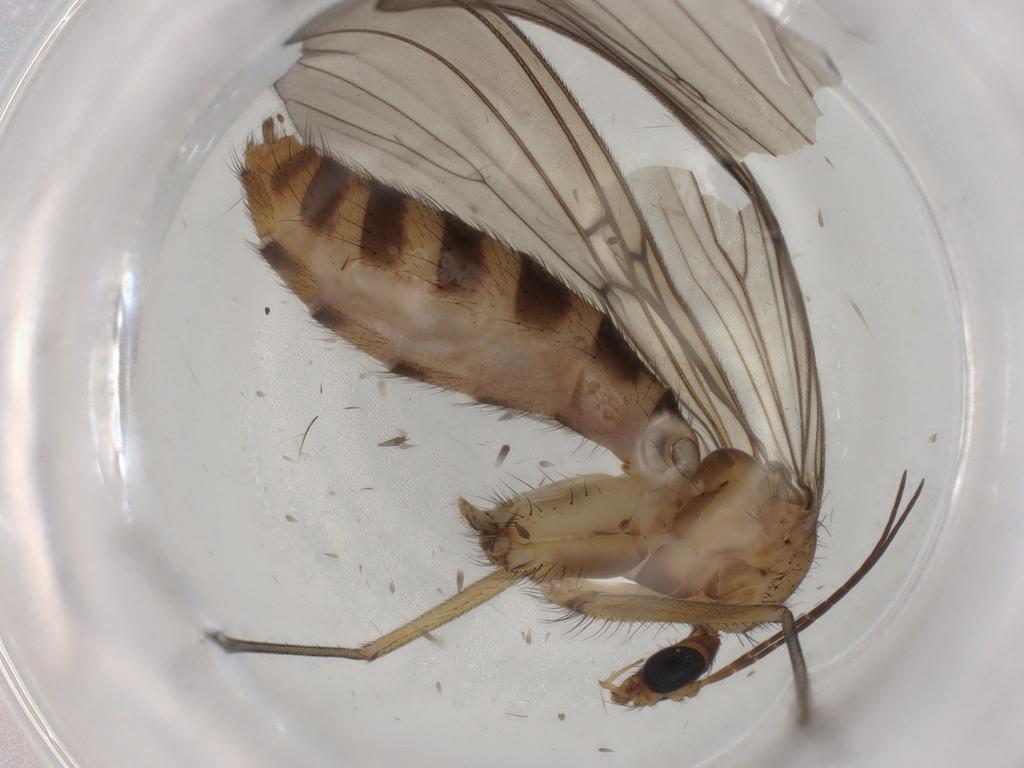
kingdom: Animalia
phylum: Arthropoda
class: Insecta
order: Diptera
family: Mycetophilidae
